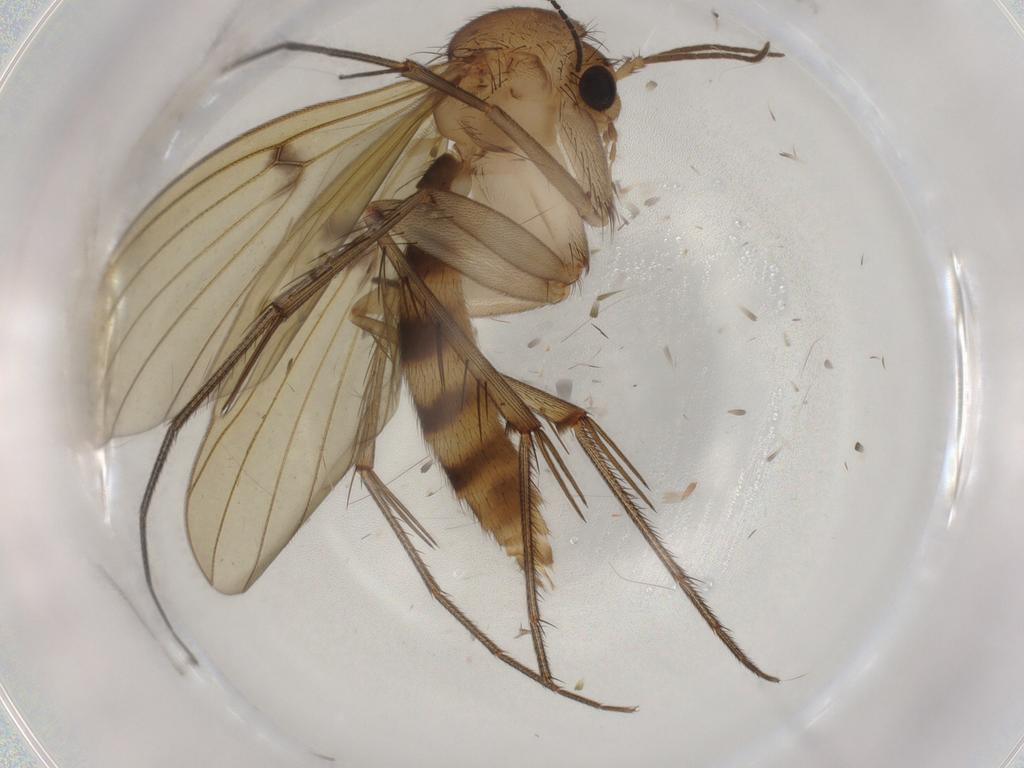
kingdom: Animalia
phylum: Arthropoda
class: Insecta
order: Diptera
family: Mycetophilidae
